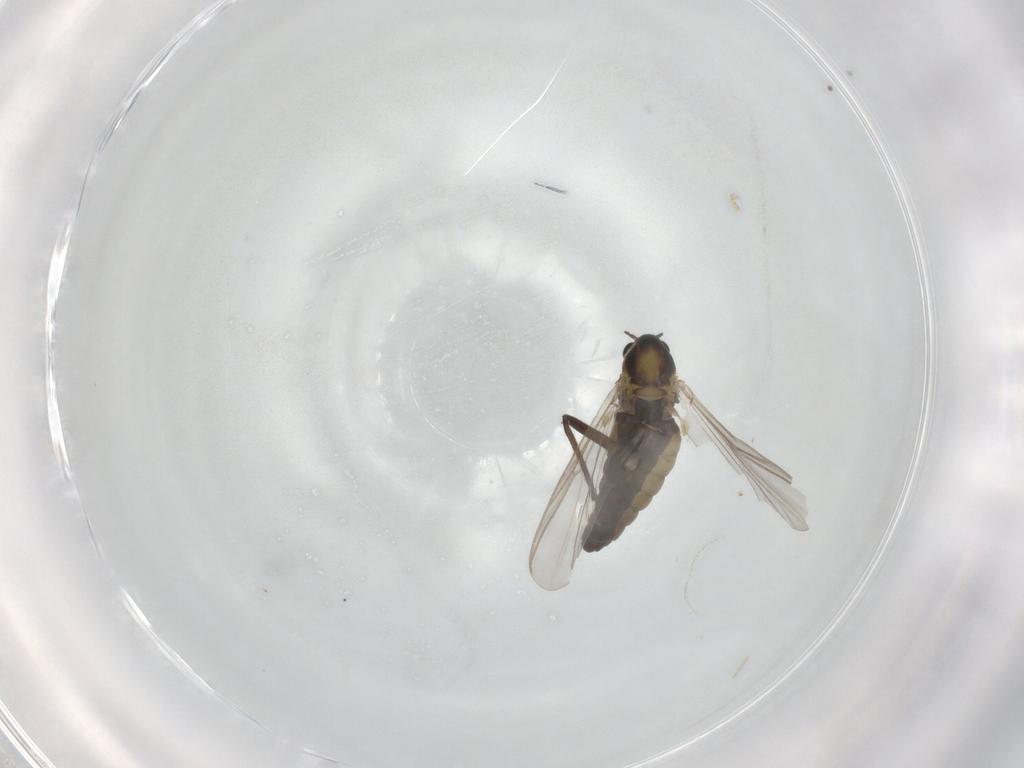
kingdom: Animalia
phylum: Arthropoda
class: Insecta
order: Diptera
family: Chironomidae
